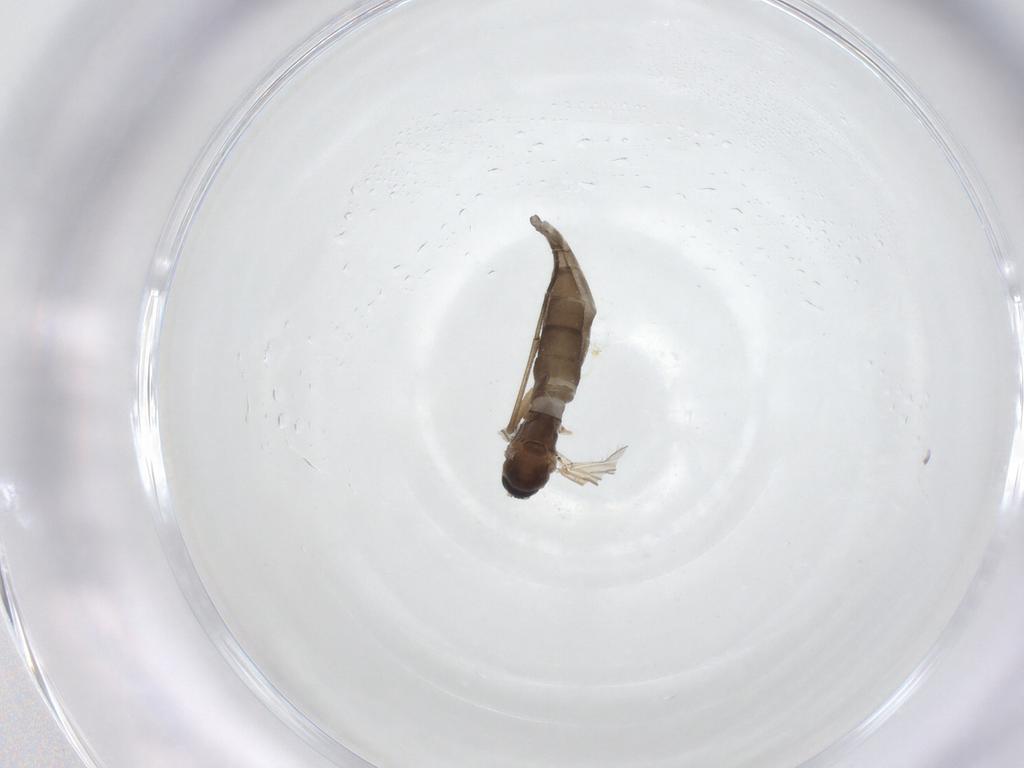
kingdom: Animalia
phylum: Arthropoda
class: Insecta
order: Diptera
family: Sciaridae
